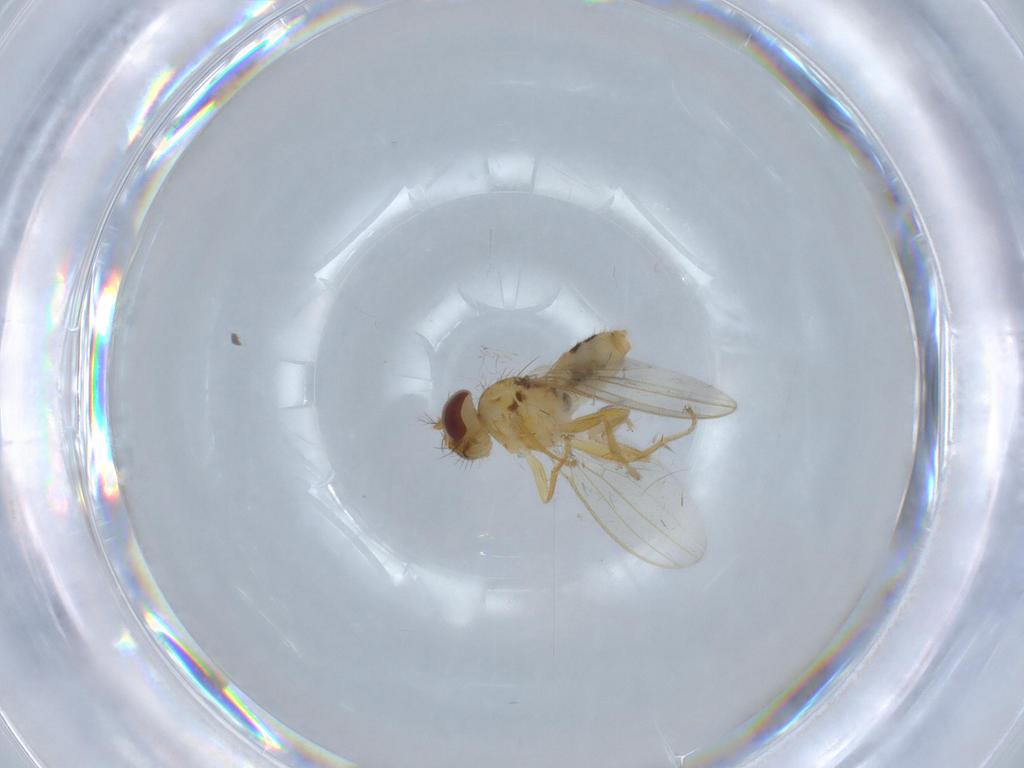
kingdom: Animalia
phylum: Arthropoda
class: Insecta
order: Diptera
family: Periscelididae
